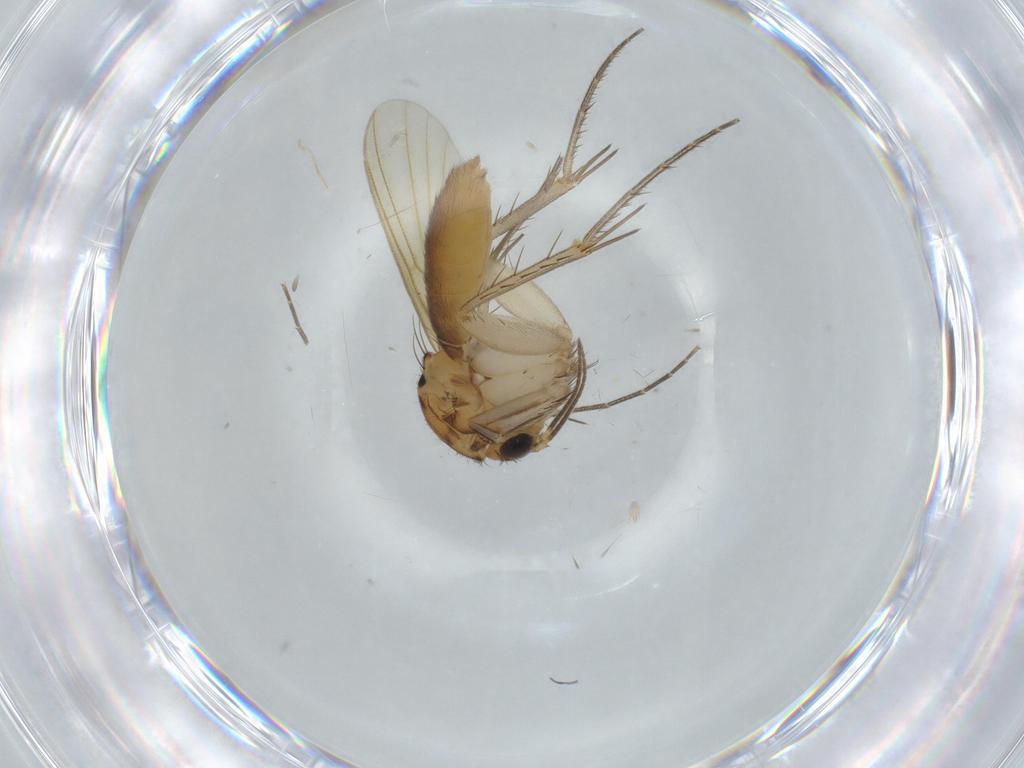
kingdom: Animalia
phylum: Arthropoda
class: Insecta
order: Diptera
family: Mycetophilidae
